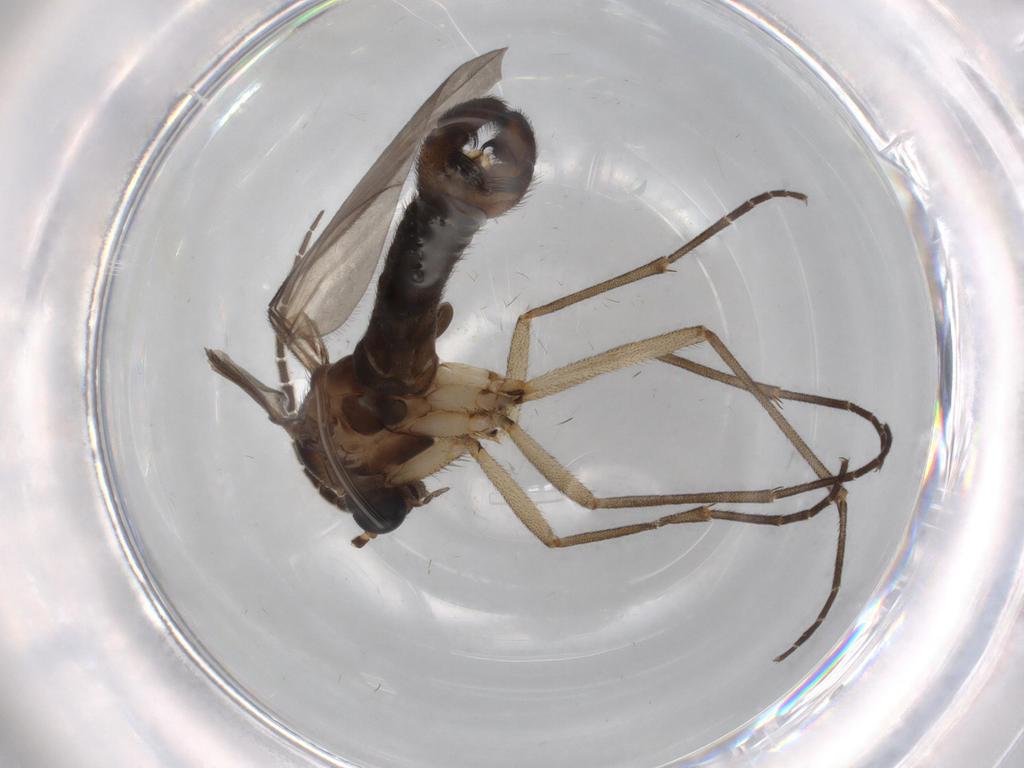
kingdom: Animalia
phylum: Arthropoda
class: Insecta
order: Diptera
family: Sciaridae
